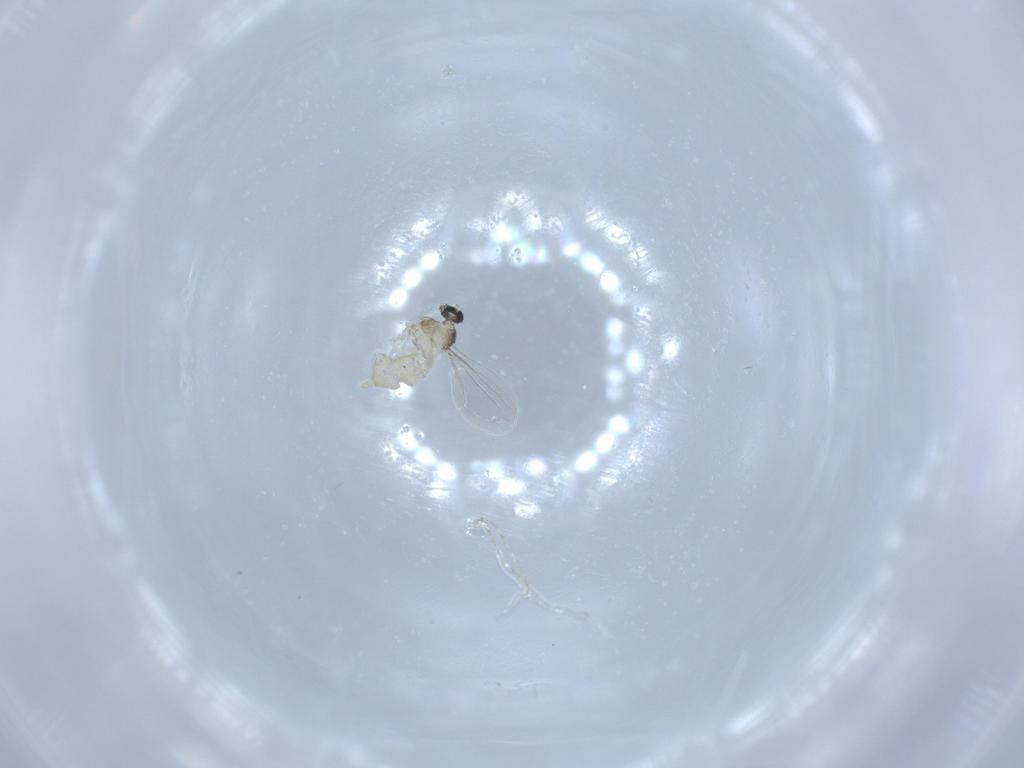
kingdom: Animalia
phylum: Arthropoda
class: Insecta
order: Diptera
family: Cecidomyiidae
